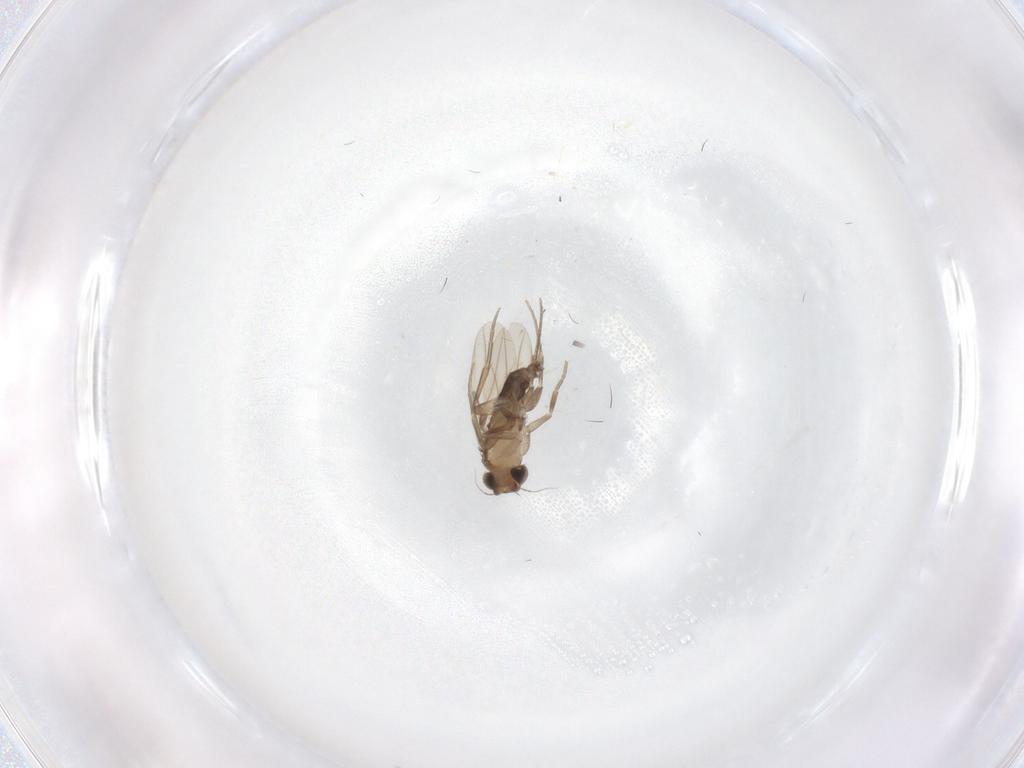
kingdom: Animalia
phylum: Arthropoda
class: Insecta
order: Diptera
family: Phoridae
